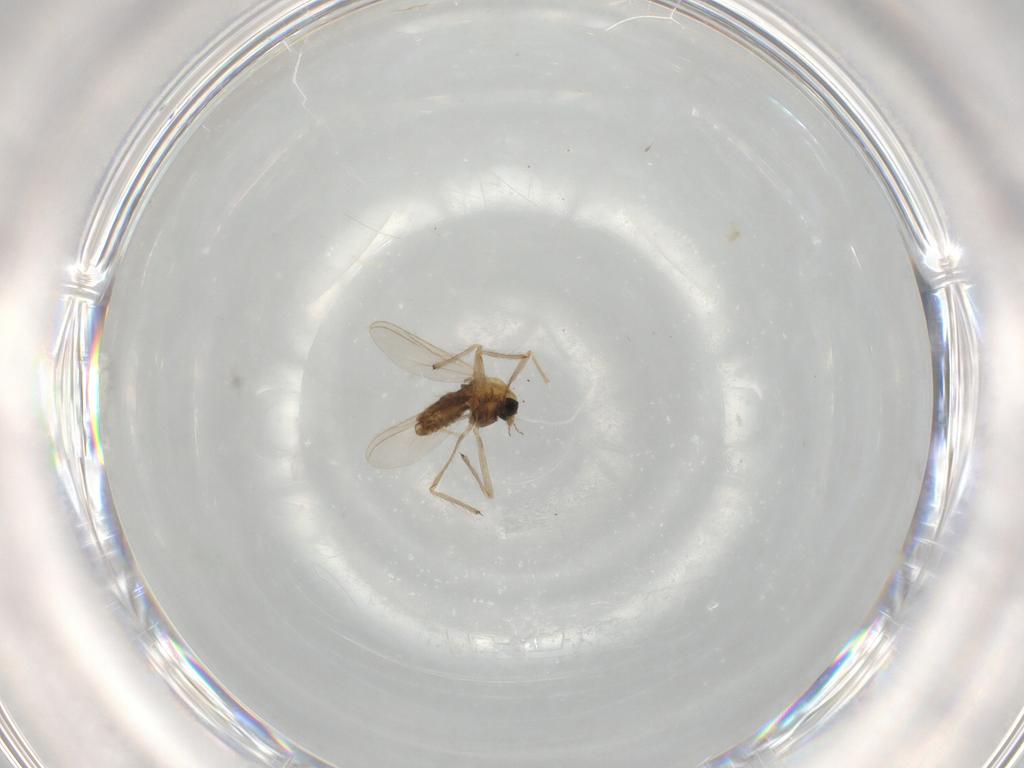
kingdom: Animalia
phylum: Arthropoda
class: Insecta
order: Diptera
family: Chironomidae
